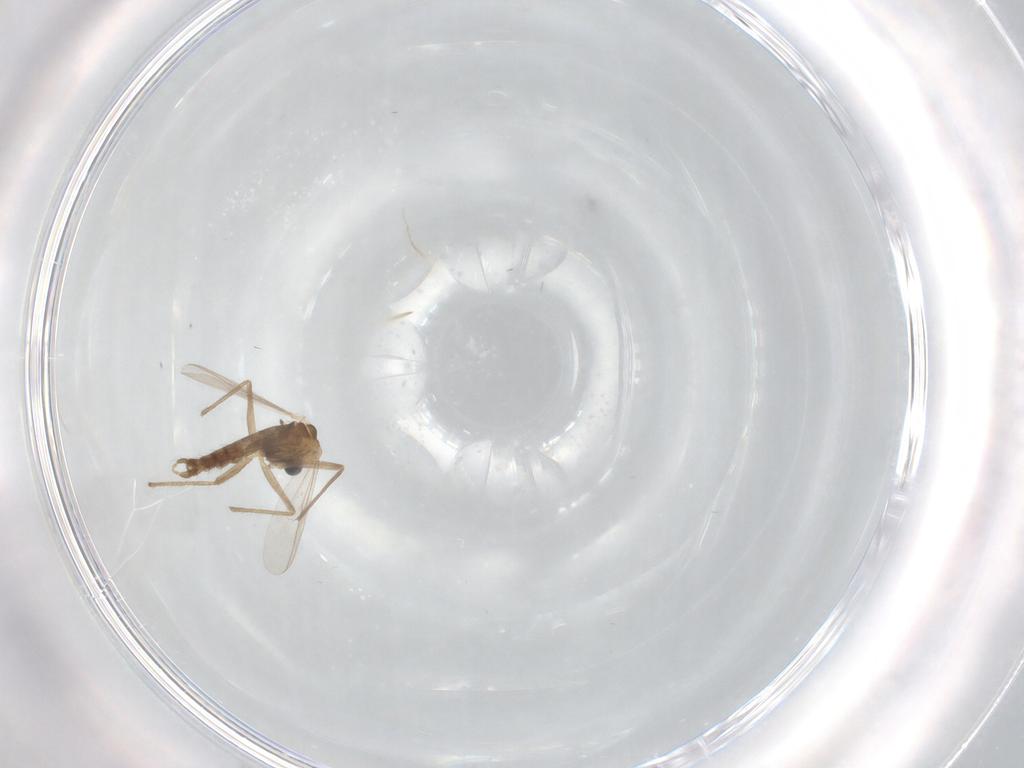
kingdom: Animalia
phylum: Arthropoda
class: Insecta
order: Diptera
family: Chironomidae
